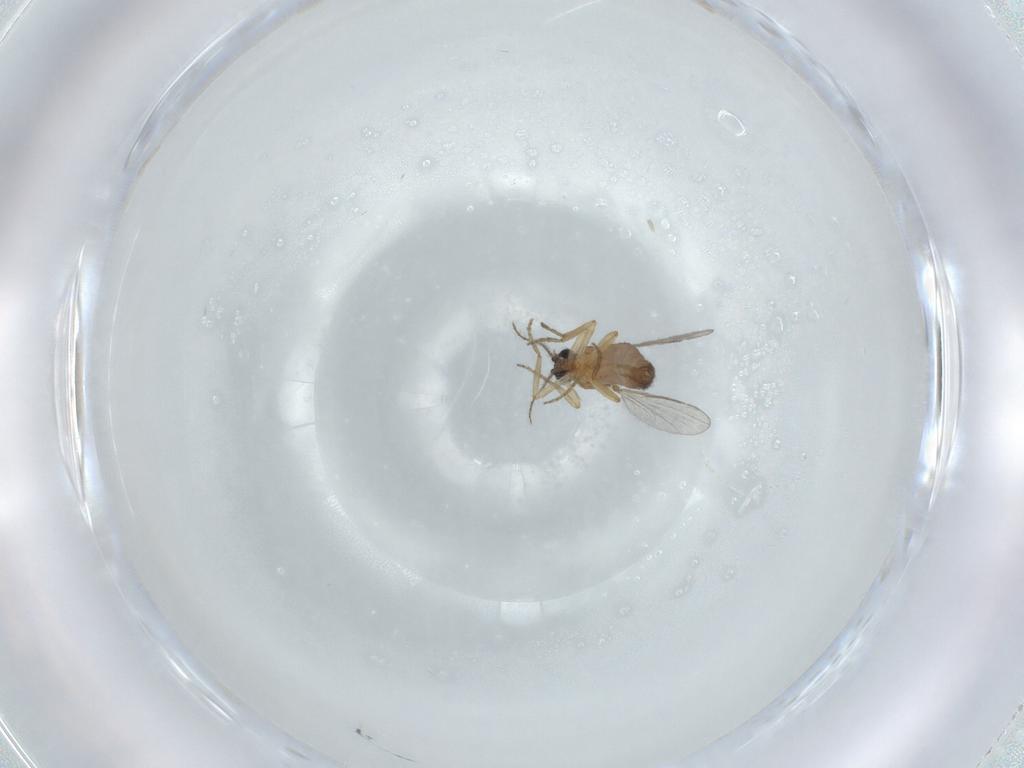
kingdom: Animalia
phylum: Arthropoda
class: Insecta
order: Diptera
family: Ceratopogonidae
